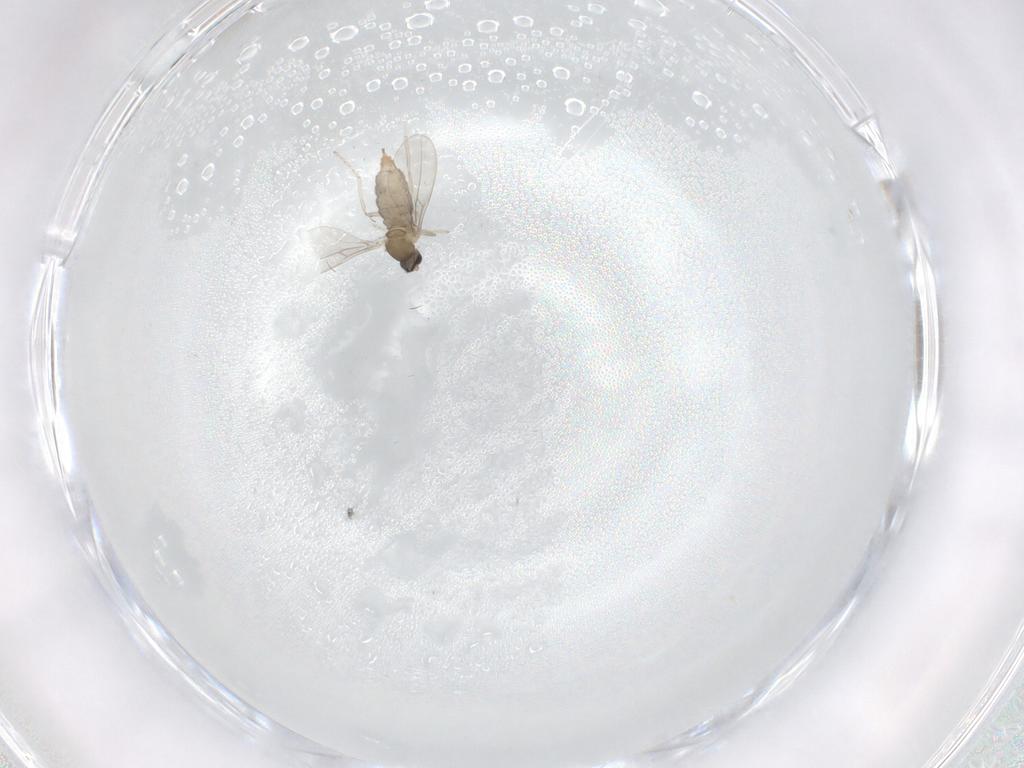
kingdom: Animalia
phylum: Arthropoda
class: Insecta
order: Diptera
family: Cecidomyiidae
